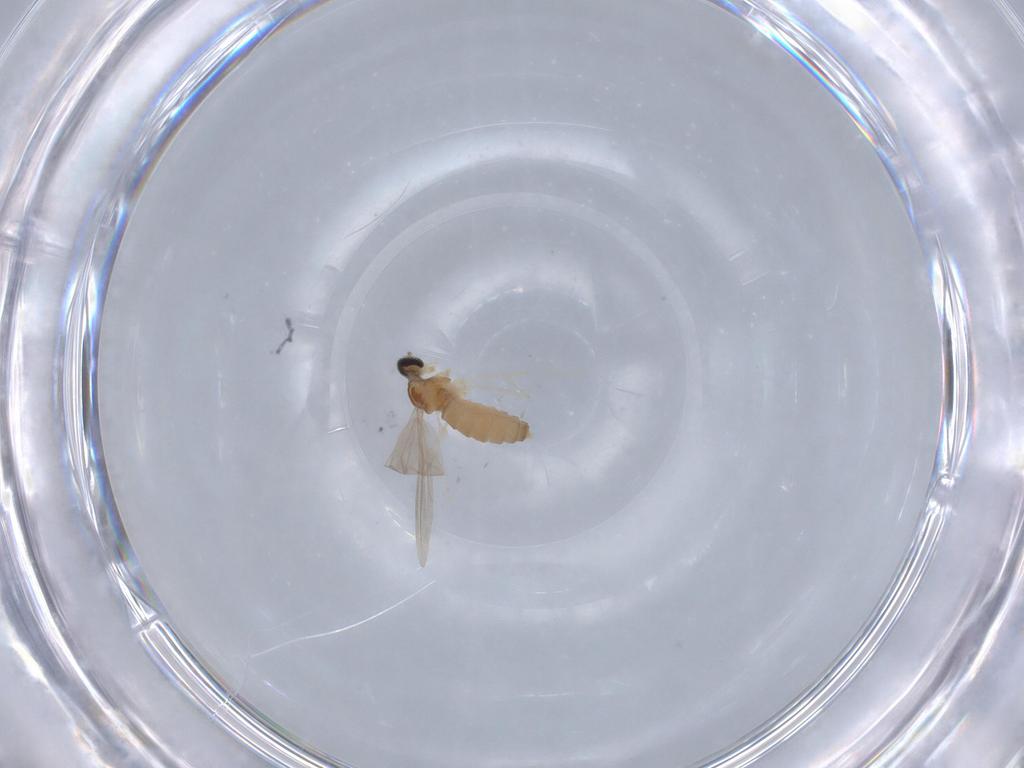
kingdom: Animalia
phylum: Arthropoda
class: Insecta
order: Diptera
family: Cecidomyiidae
